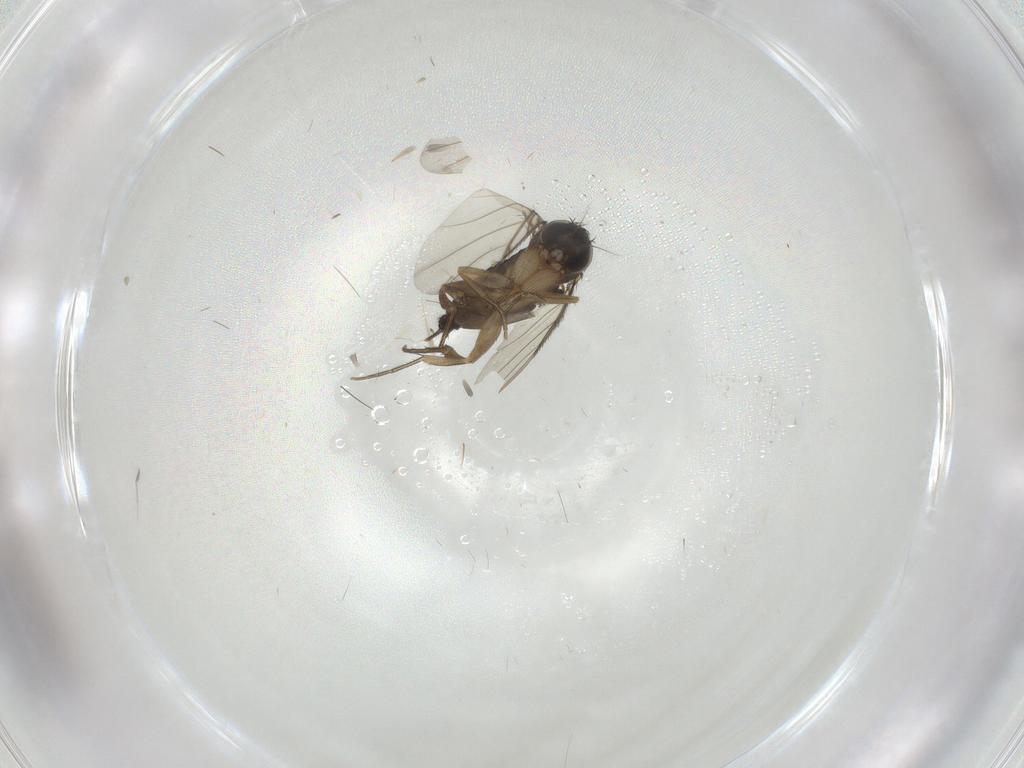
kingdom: Animalia
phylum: Arthropoda
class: Insecta
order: Diptera
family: Phoridae
